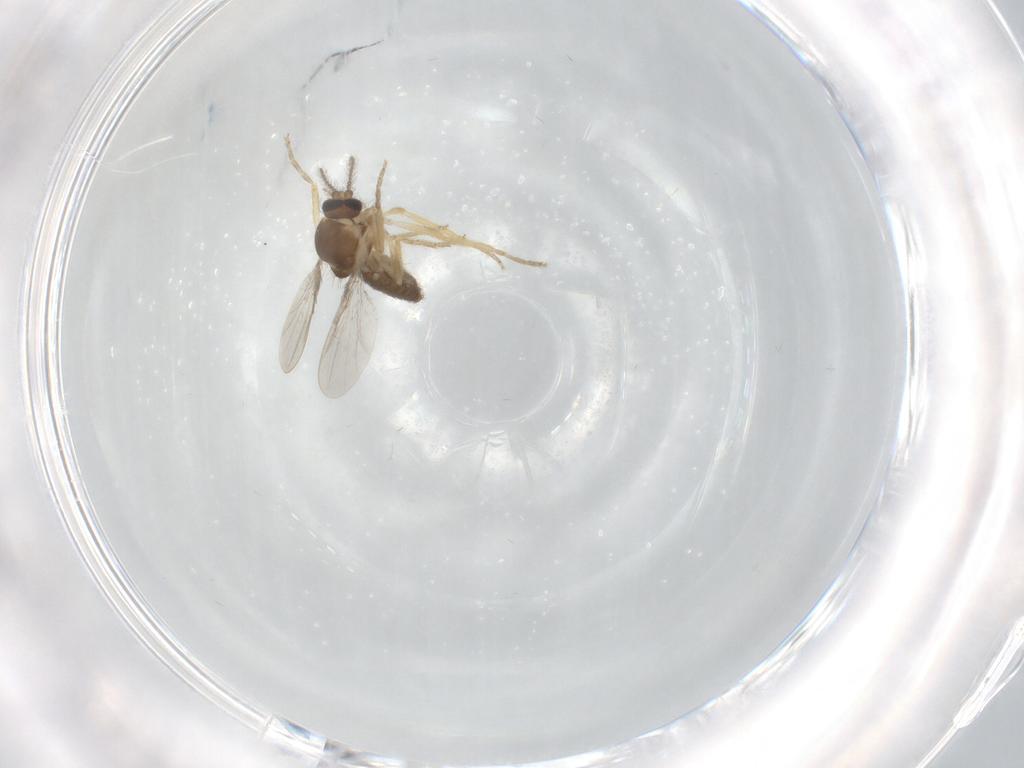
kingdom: Animalia
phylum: Arthropoda
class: Insecta
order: Diptera
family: Ceratopogonidae
